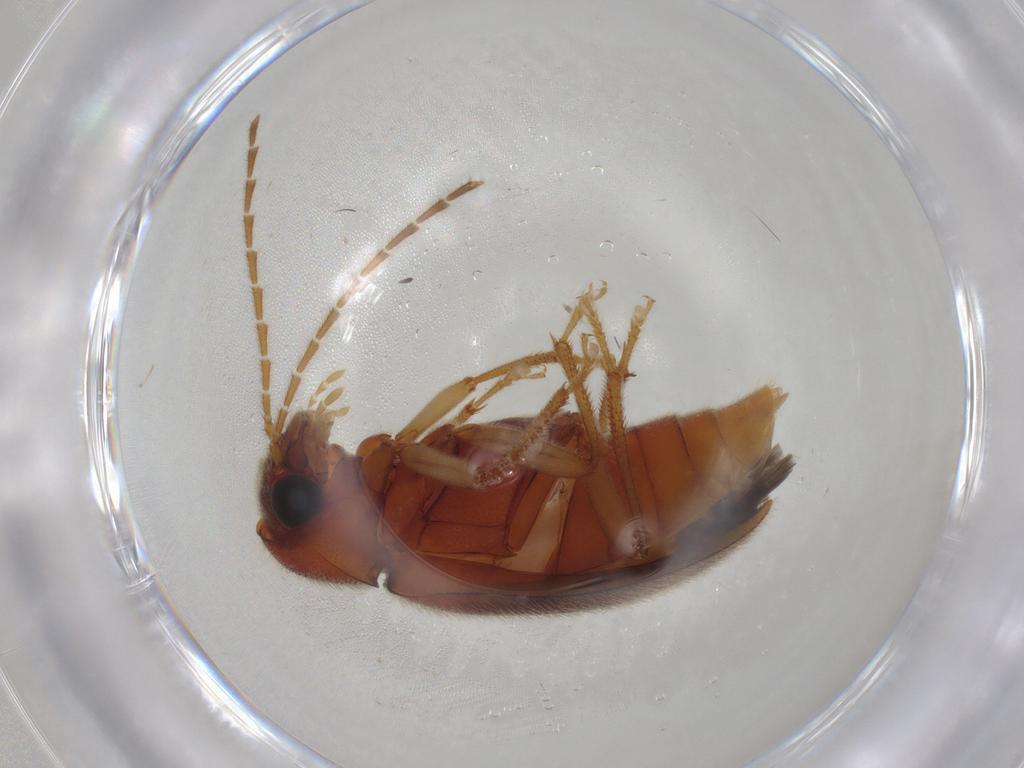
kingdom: Animalia
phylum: Arthropoda
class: Insecta
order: Coleoptera
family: Ptilodactylidae
